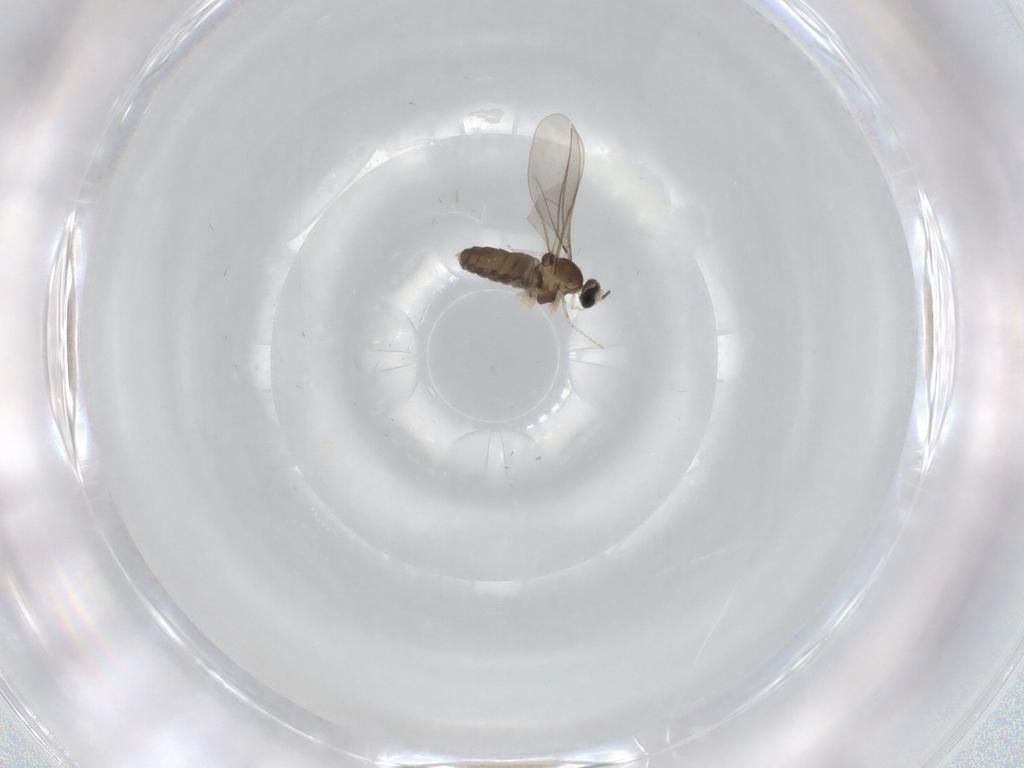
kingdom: Animalia
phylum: Arthropoda
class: Insecta
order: Diptera
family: Cecidomyiidae
